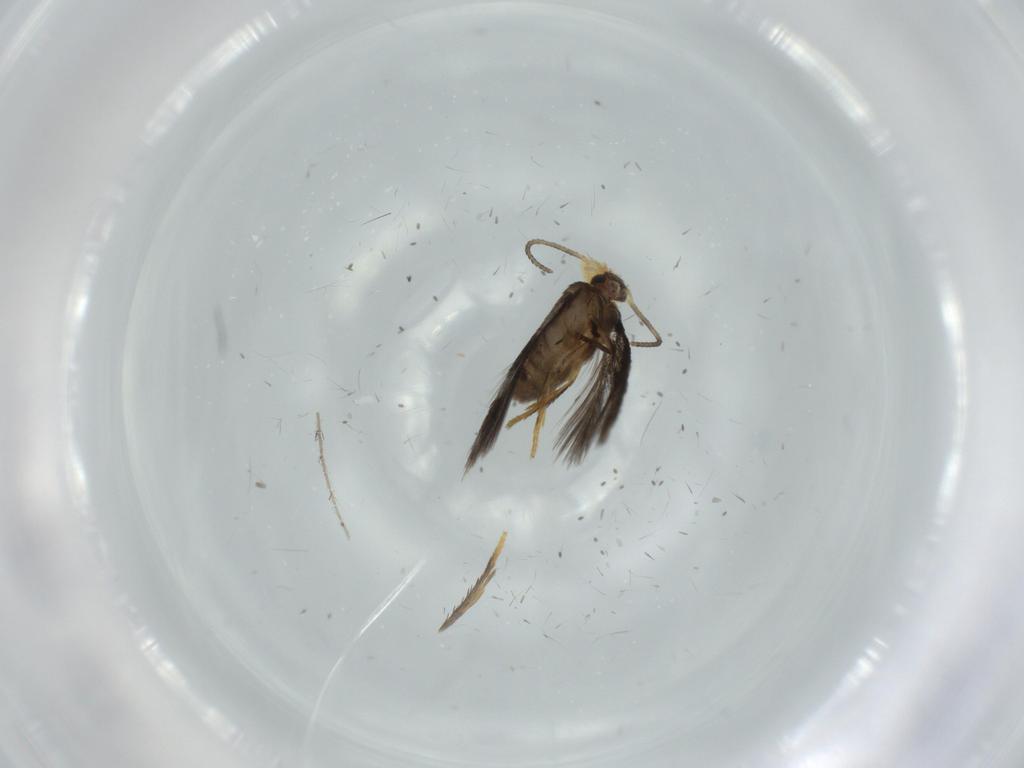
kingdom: Animalia
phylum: Arthropoda
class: Insecta
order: Lepidoptera
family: Nepticulidae
